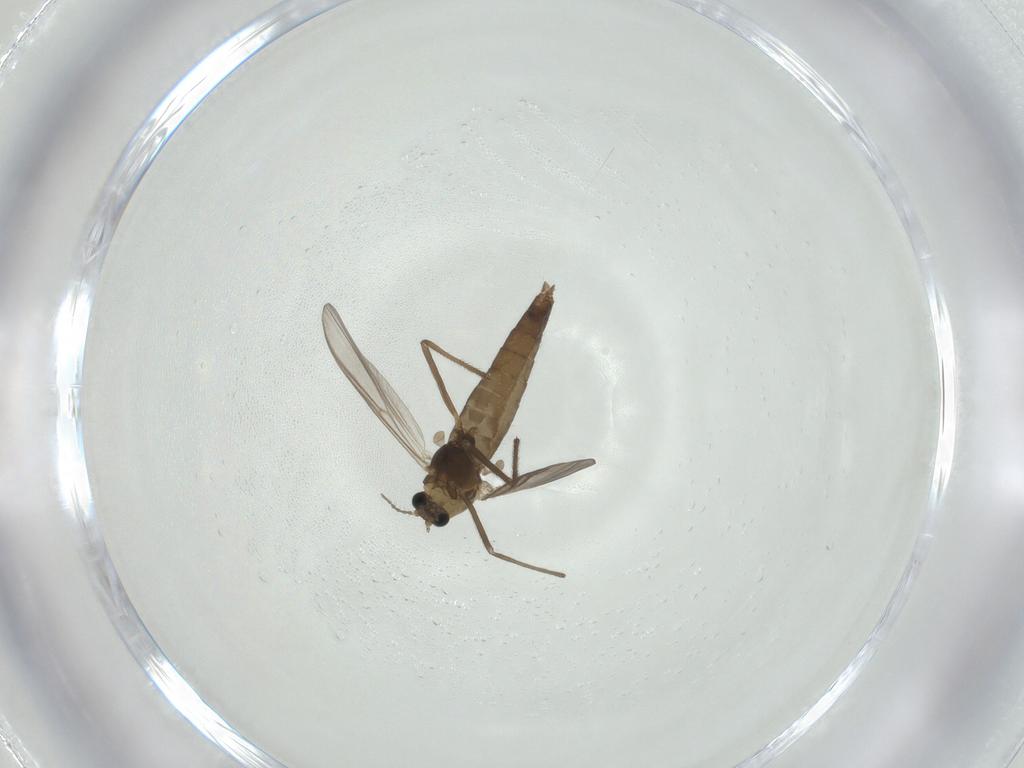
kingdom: Animalia
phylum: Arthropoda
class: Insecta
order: Diptera
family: Chironomidae
